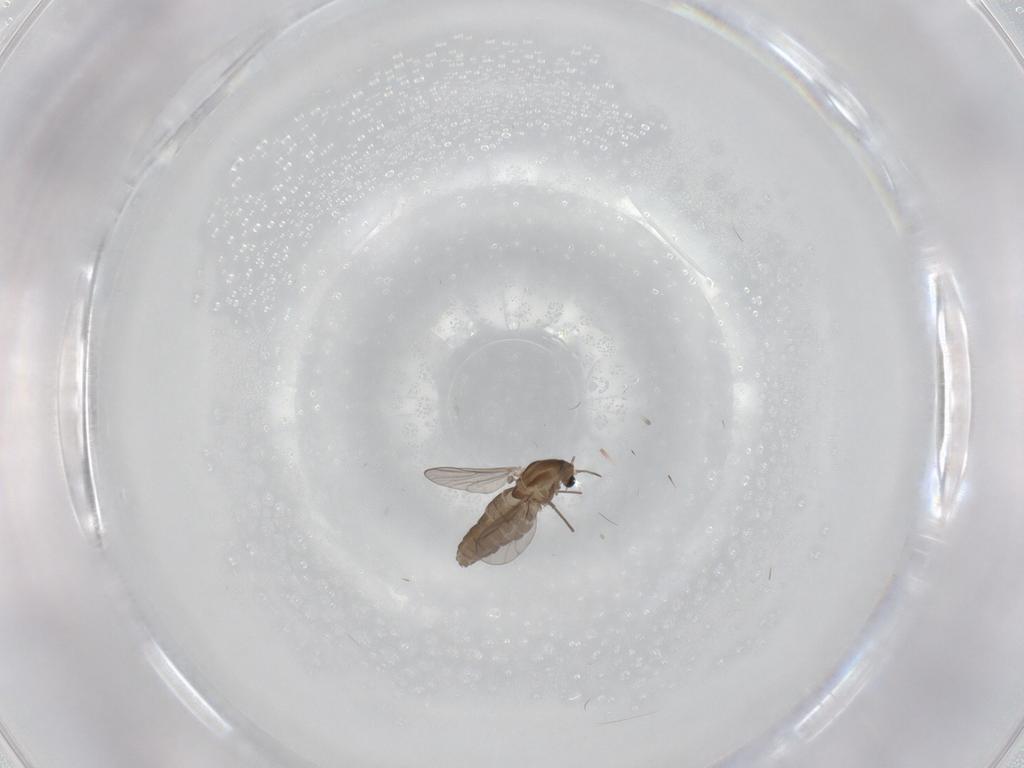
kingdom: Animalia
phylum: Arthropoda
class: Insecta
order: Diptera
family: Chironomidae
